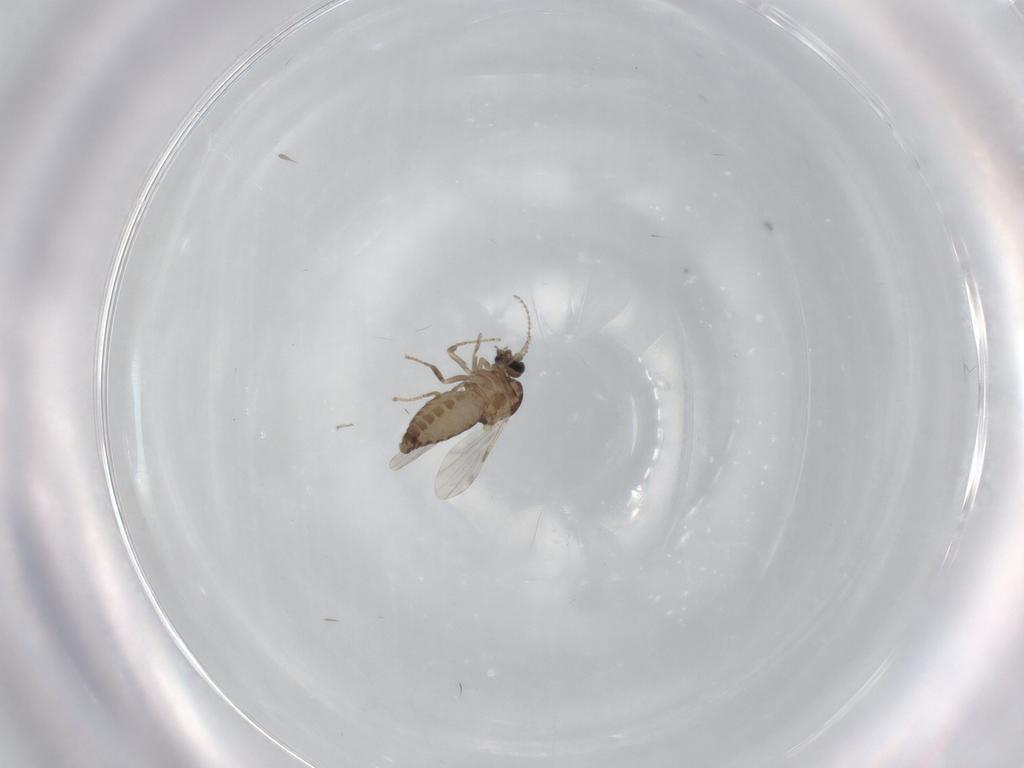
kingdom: Animalia
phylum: Arthropoda
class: Insecta
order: Diptera
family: Ceratopogonidae
